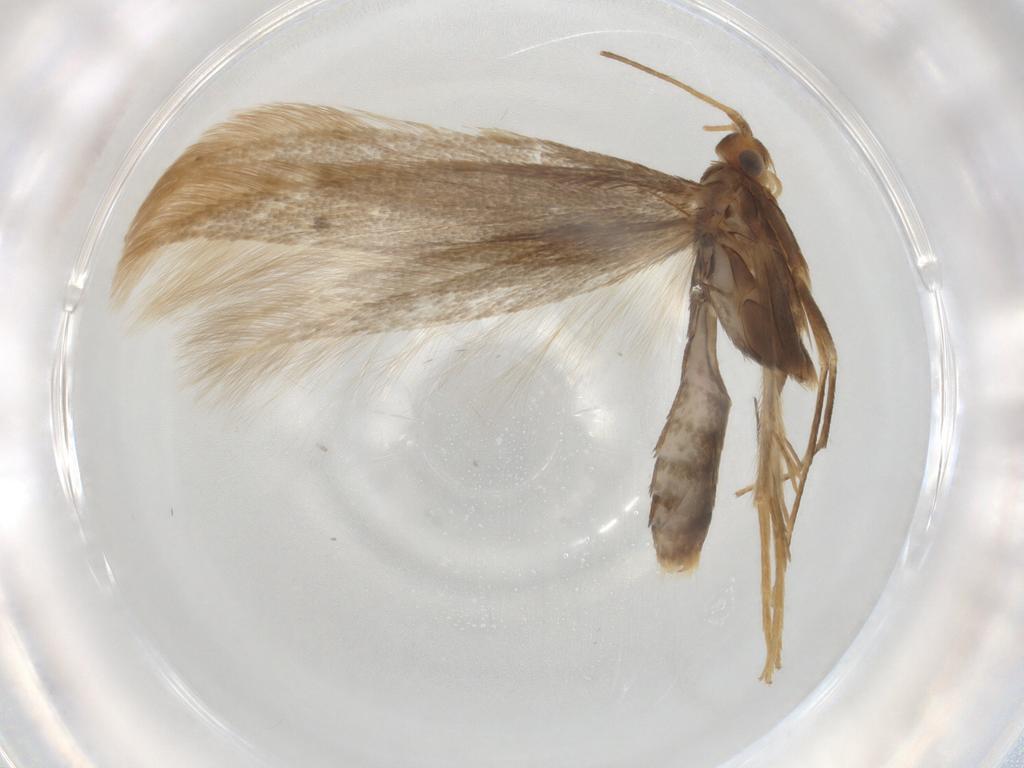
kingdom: Animalia
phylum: Arthropoda
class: Insecta
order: Lepidoptera
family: Coleophoridae
